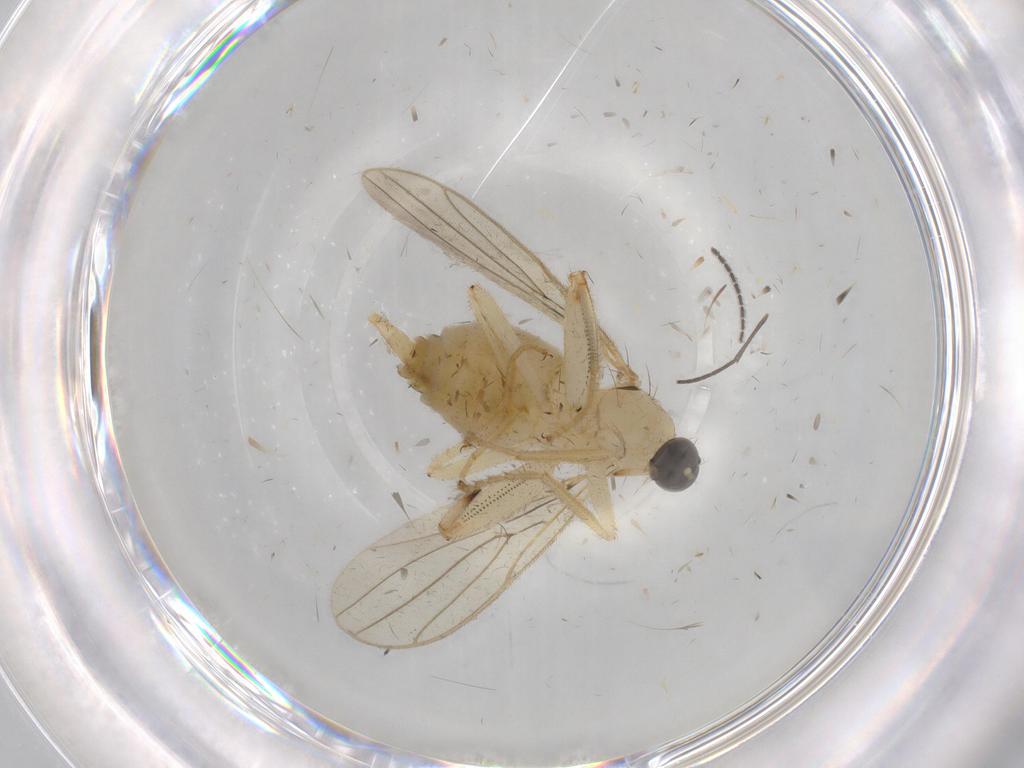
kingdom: Animalia
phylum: Arthropoda
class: Insecta
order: Diptera
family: Hybotidae
